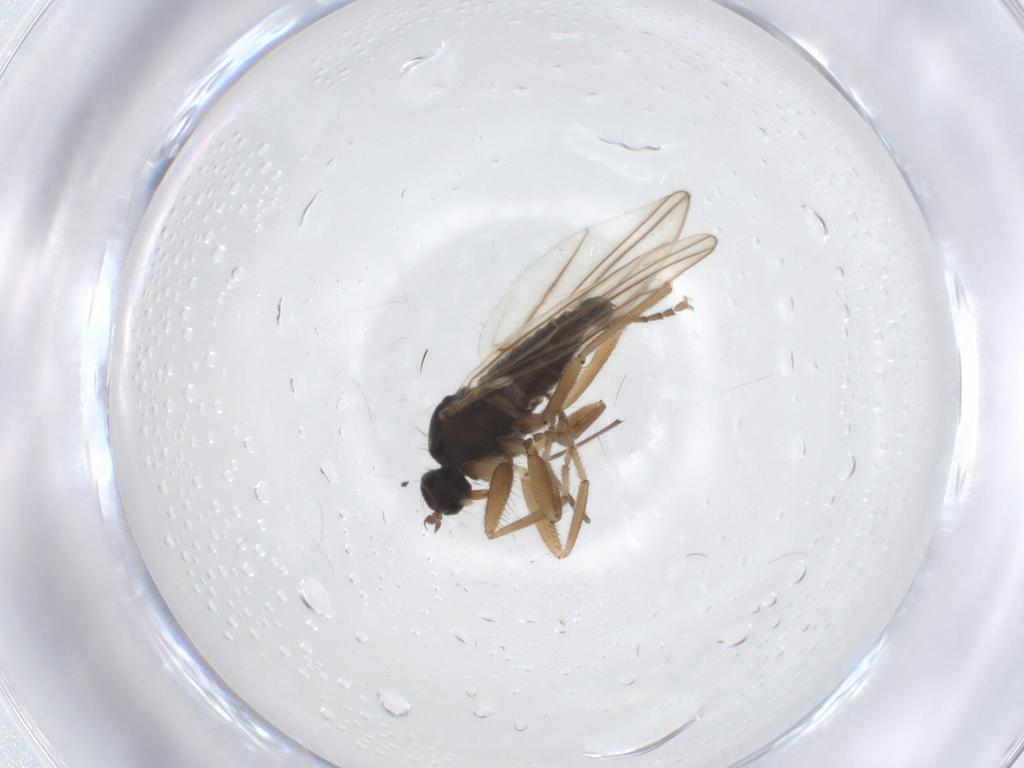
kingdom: Animalia
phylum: Arthropoda
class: Insecta
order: Diptera
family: Hybotidae
